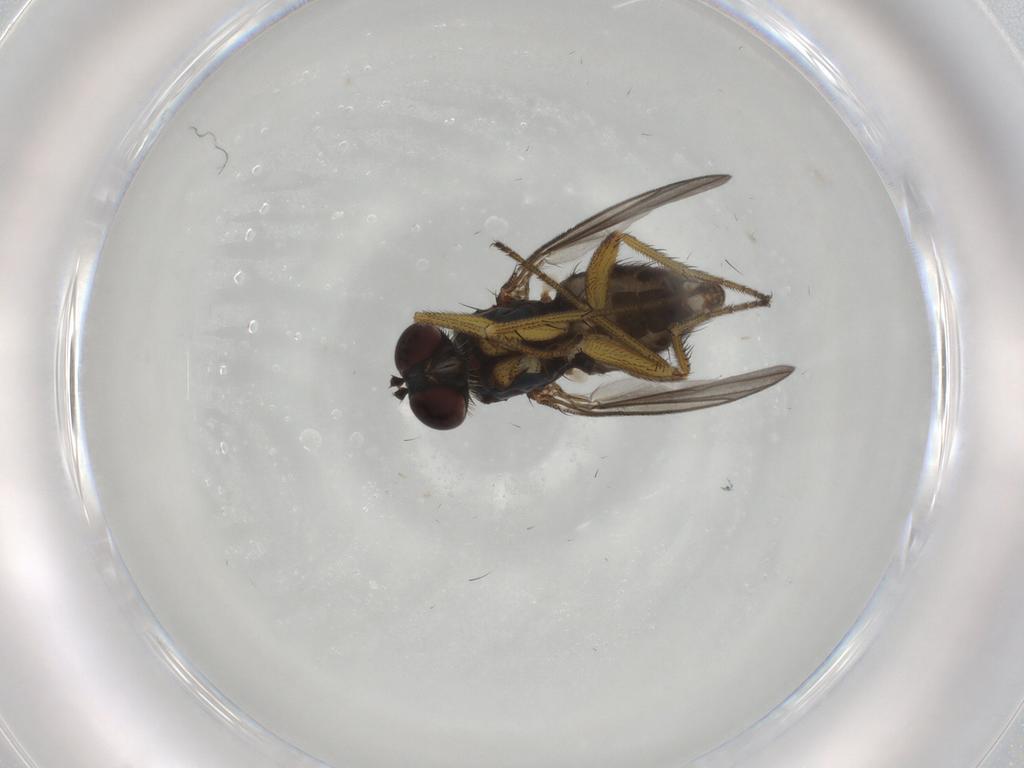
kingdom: Animalia
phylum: Arthropoda
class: Insecta
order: Diptera
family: Dolichopodidae
